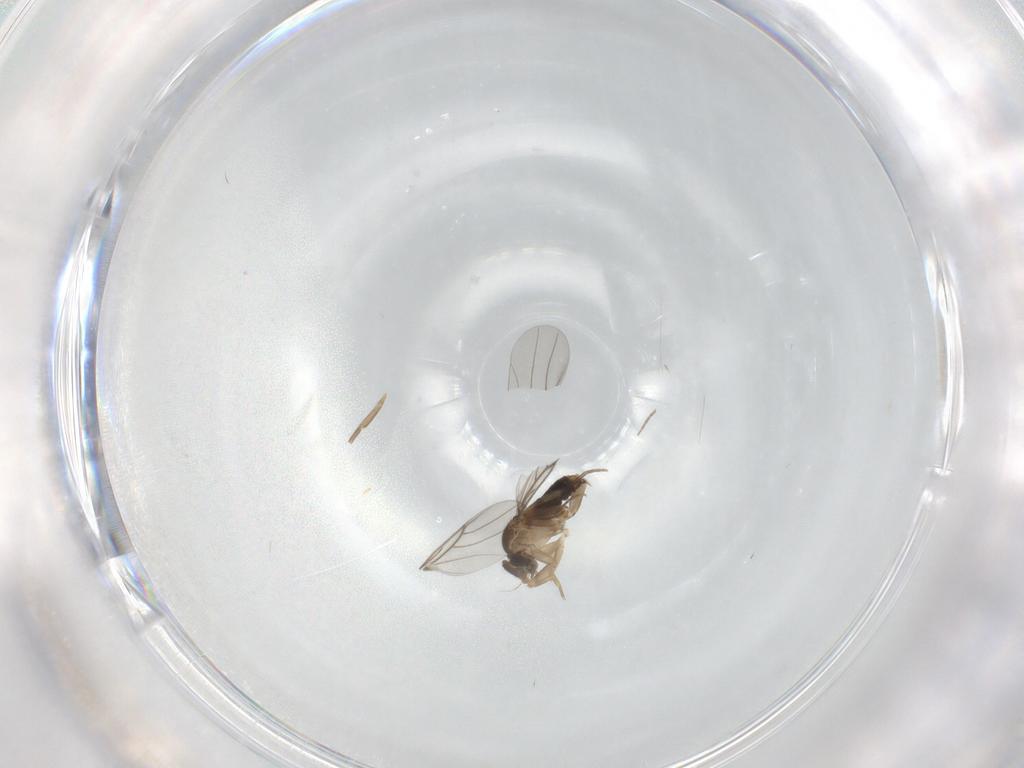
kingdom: Animalia
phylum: Arthropoda
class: Insecta
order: Diptera
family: Phoridae
